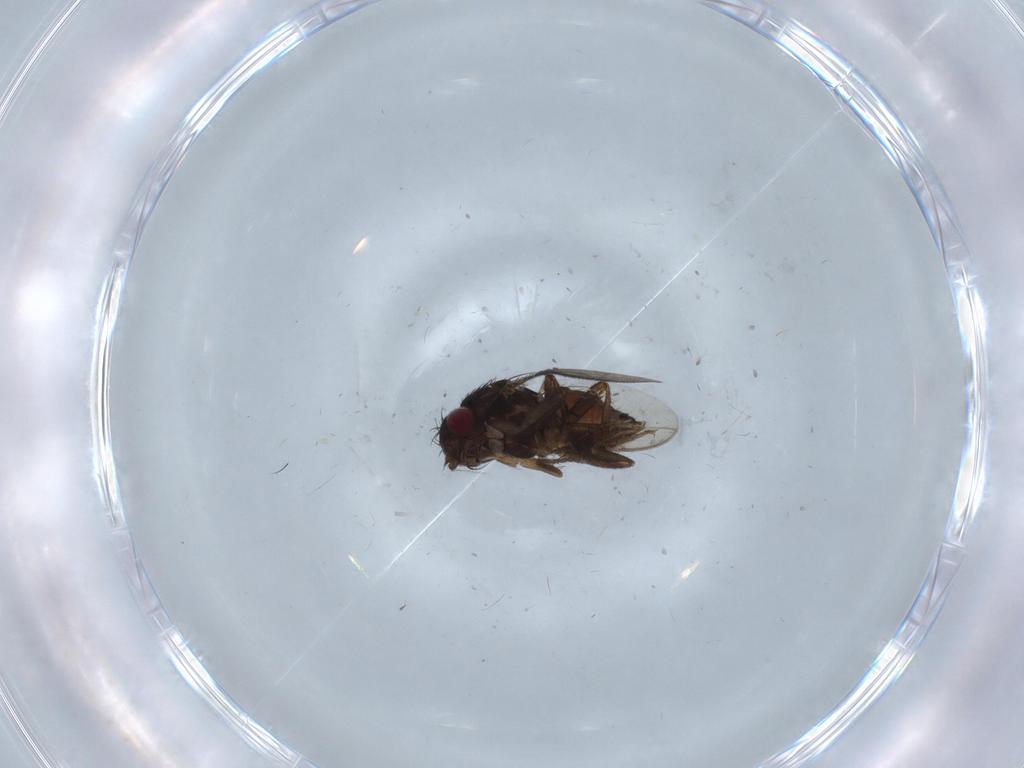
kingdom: Animalia
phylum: Arthropoda
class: Insecta
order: Diptera
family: Sphaeroceridae
